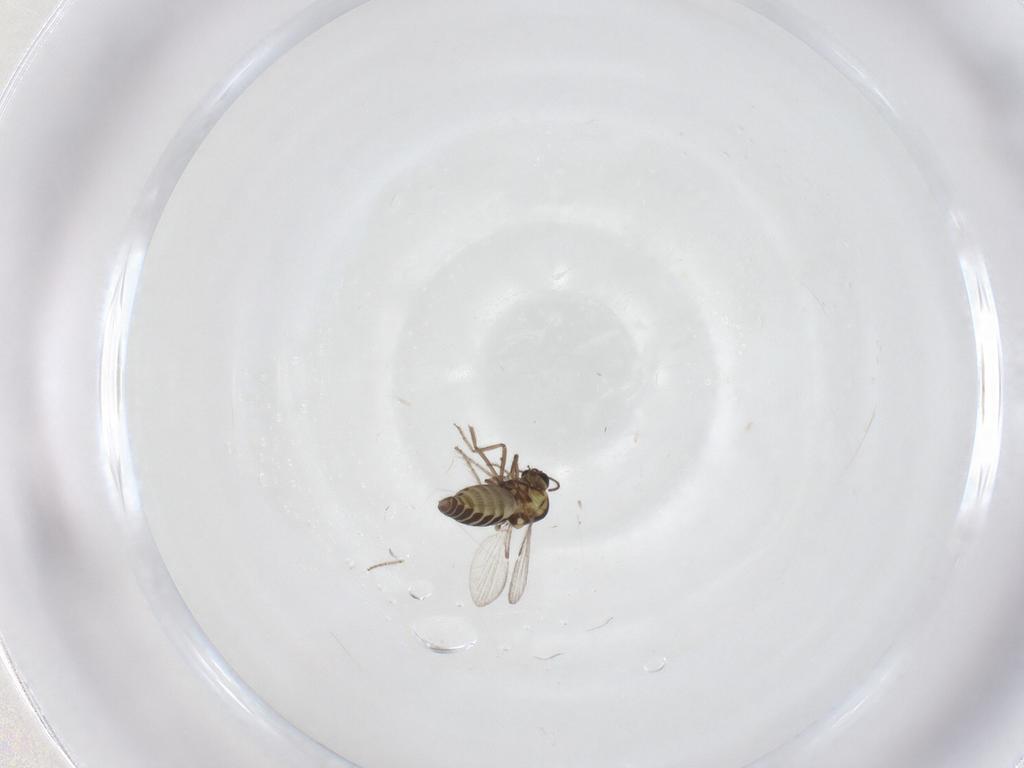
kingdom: Animalia
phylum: Arthropoda
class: Insecta
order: Diptera
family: Ceratopogonidae
